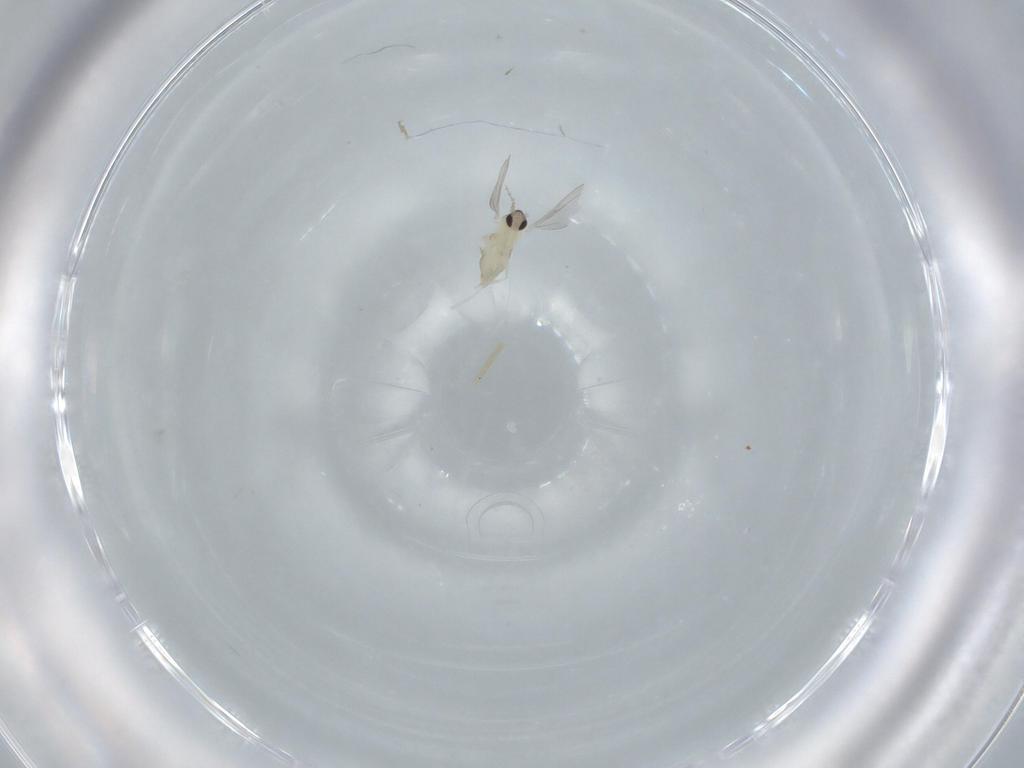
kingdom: Animalia
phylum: Arthropoda
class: Insecta
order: Diptera
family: Cecidomyiidae
